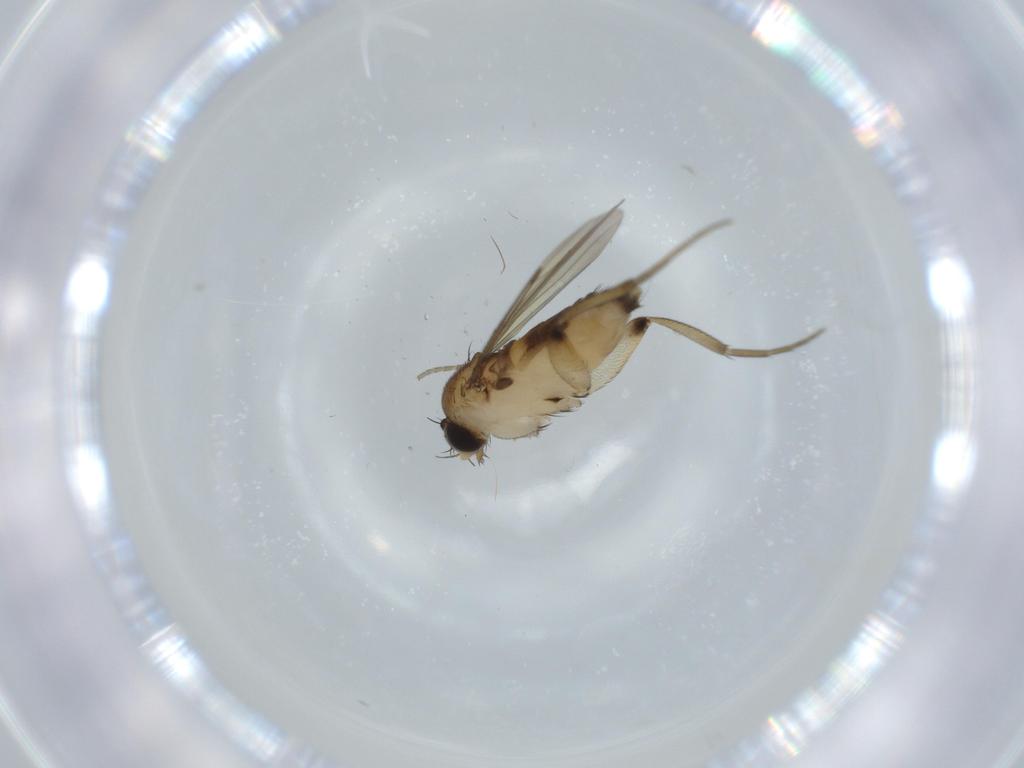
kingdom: Animalia
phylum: Arthropoda
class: Insecta
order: Diptera
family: Phoridae
